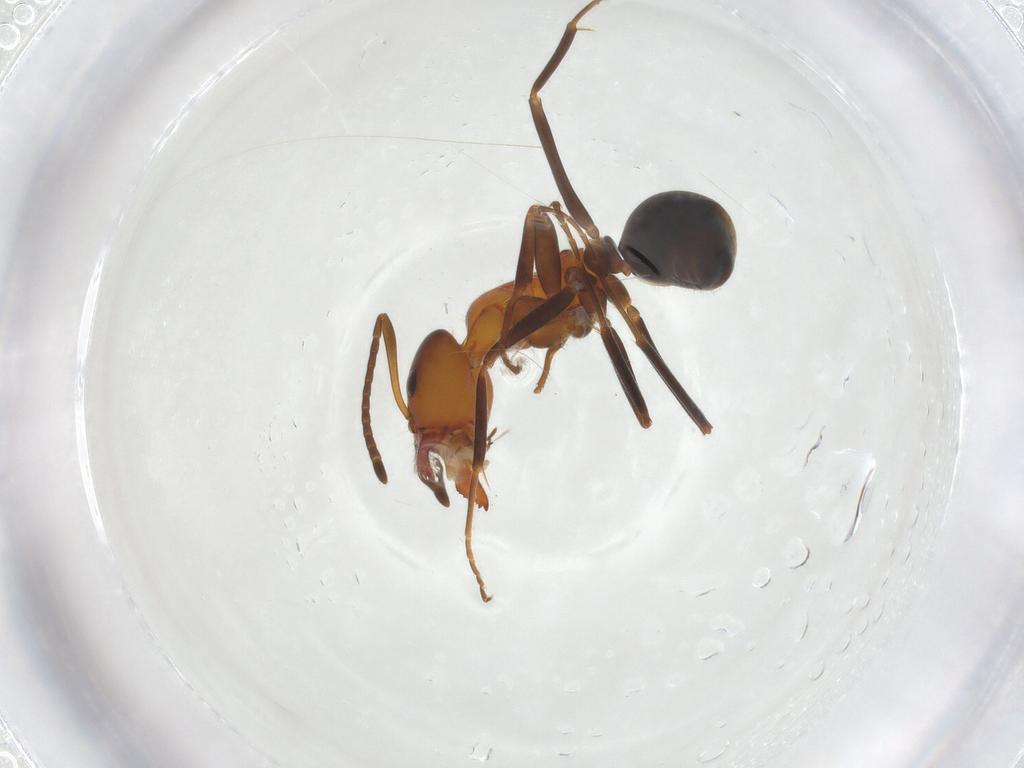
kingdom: Animalia
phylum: Arthropoda
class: Insecta
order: Hymenoptera
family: Formicidae
